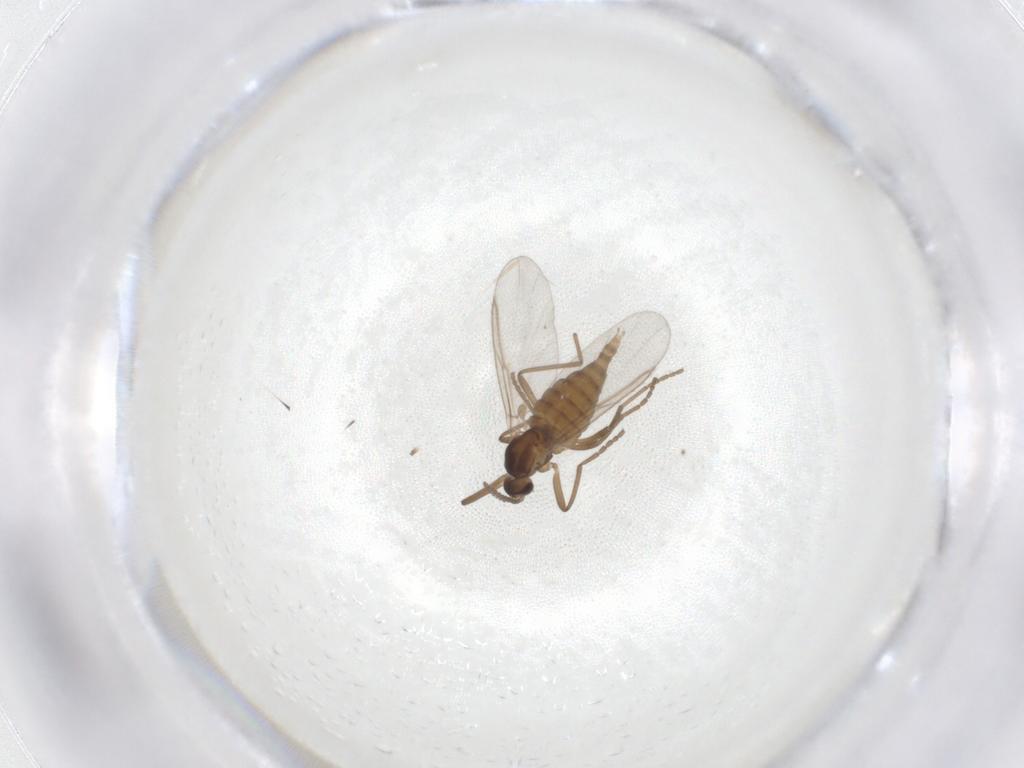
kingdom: Animalia
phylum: Arthropoda
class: Insecta
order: Diptera
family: Cecidomyiidae
